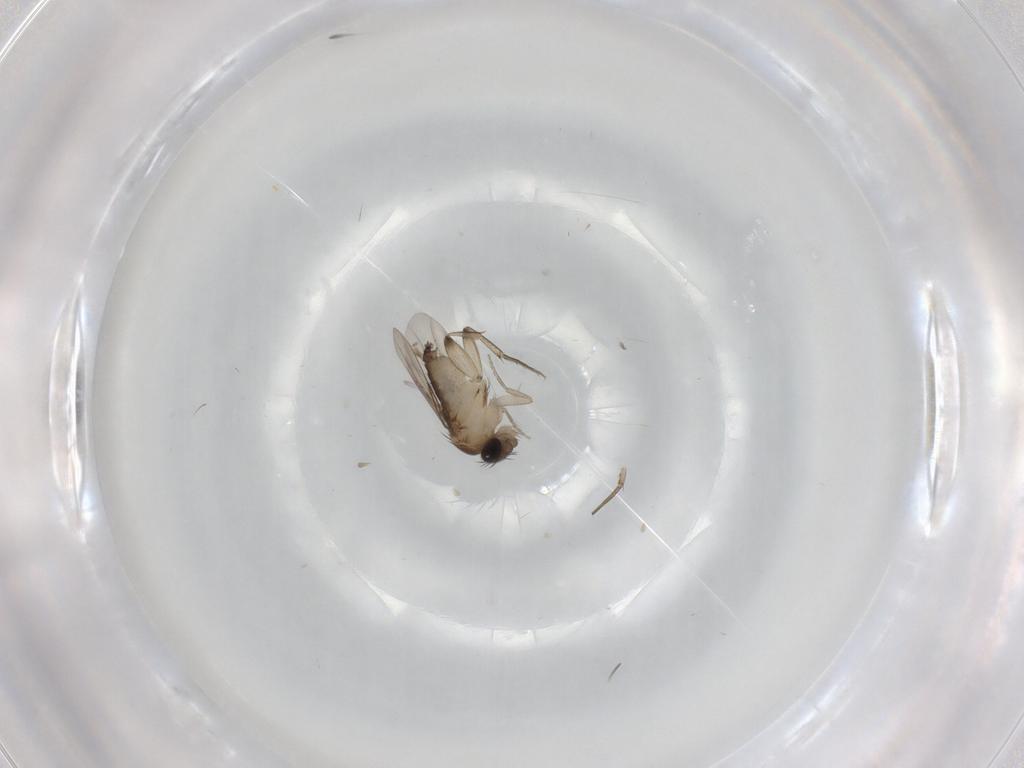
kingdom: Animalia
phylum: Arthropoda
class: Insecta
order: Diptera
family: Phoridae
